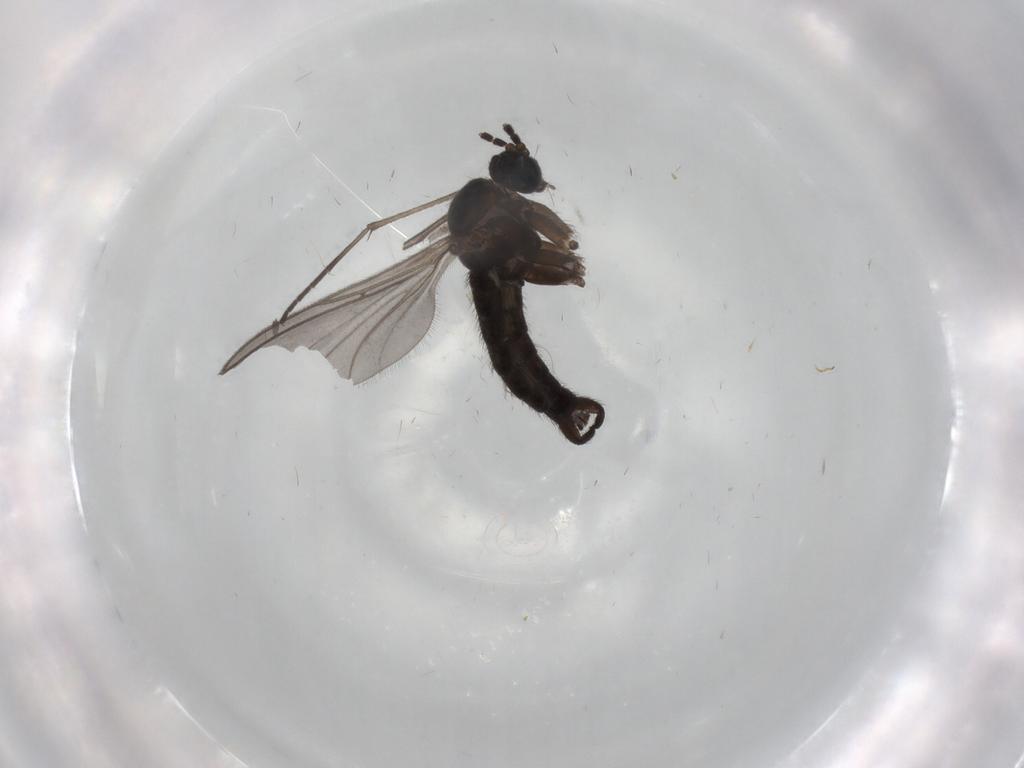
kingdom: Animalia
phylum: Arthropoda
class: Insecta
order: Diptera
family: Sciaridae
